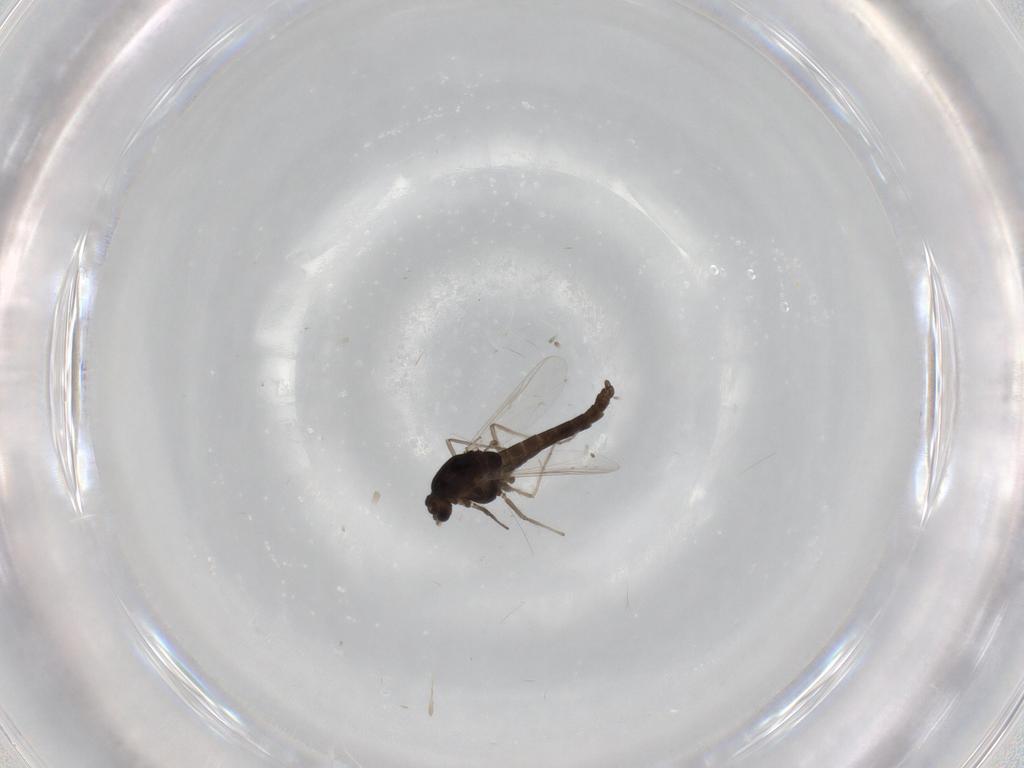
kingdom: Animalia
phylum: Arthropoda
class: Insecta
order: Diptera
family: Chironomidae
